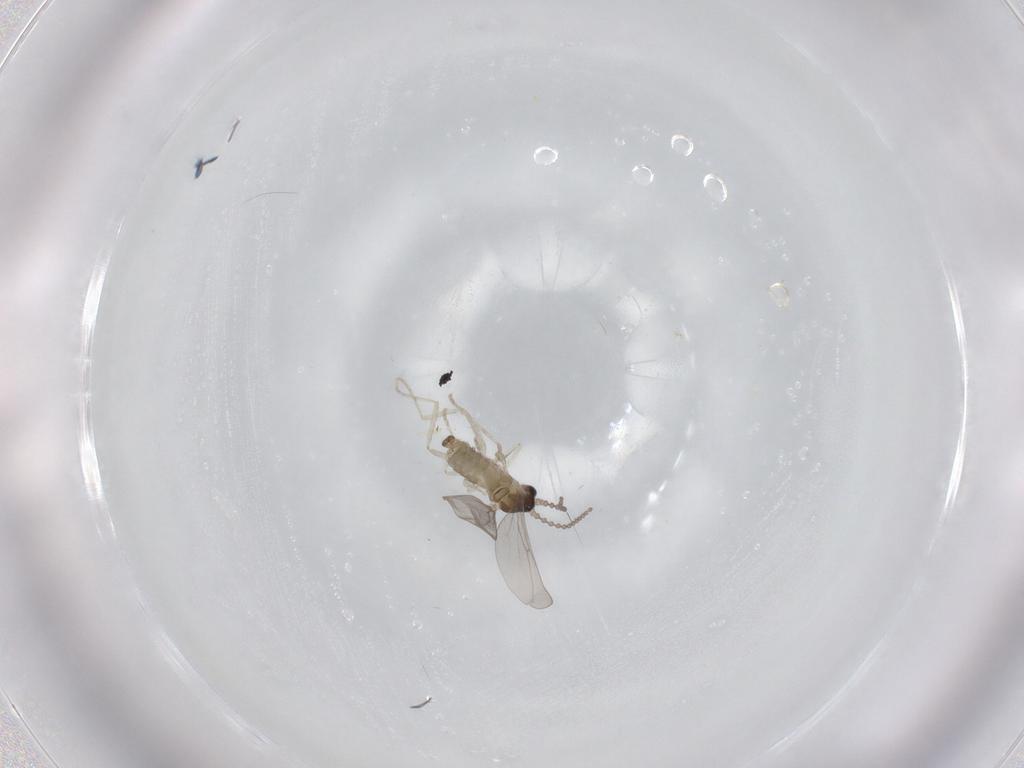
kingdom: Animalia
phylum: Arthropoda
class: Insecta
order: Diptera
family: Cecidomyiidae
